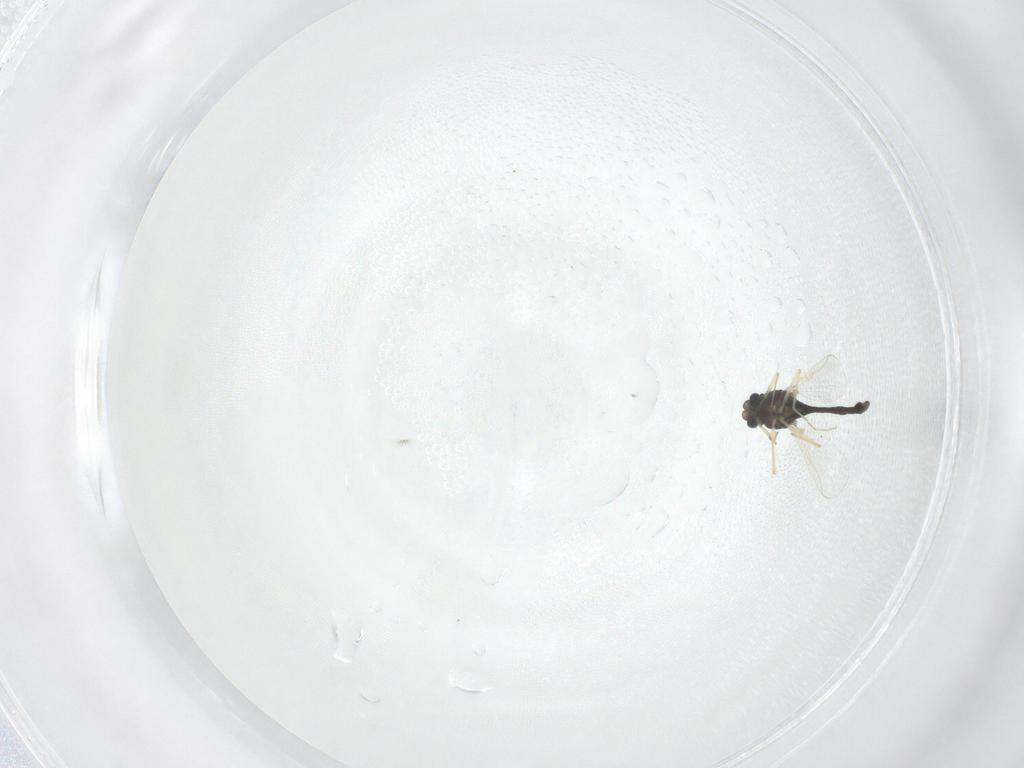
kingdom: Animalia
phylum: Arthropoda
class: Insecta
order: Diptera
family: Chironomidae
